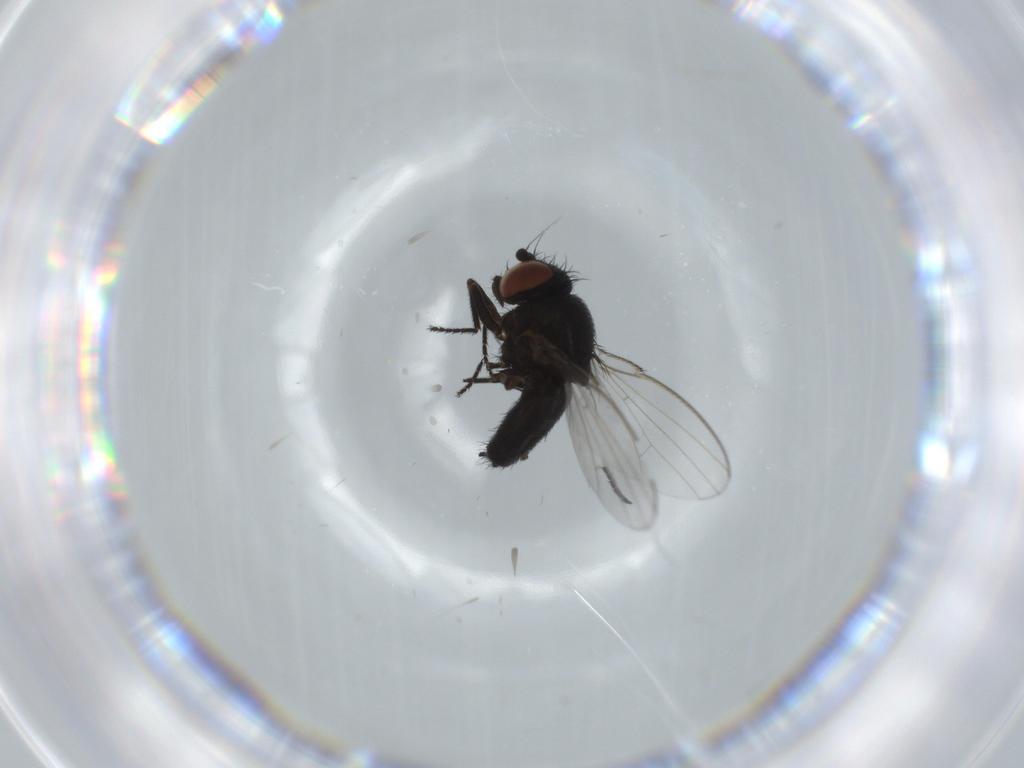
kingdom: Animalia
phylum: Arthropoda
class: Insecta
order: Diptera
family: Milichiidae
